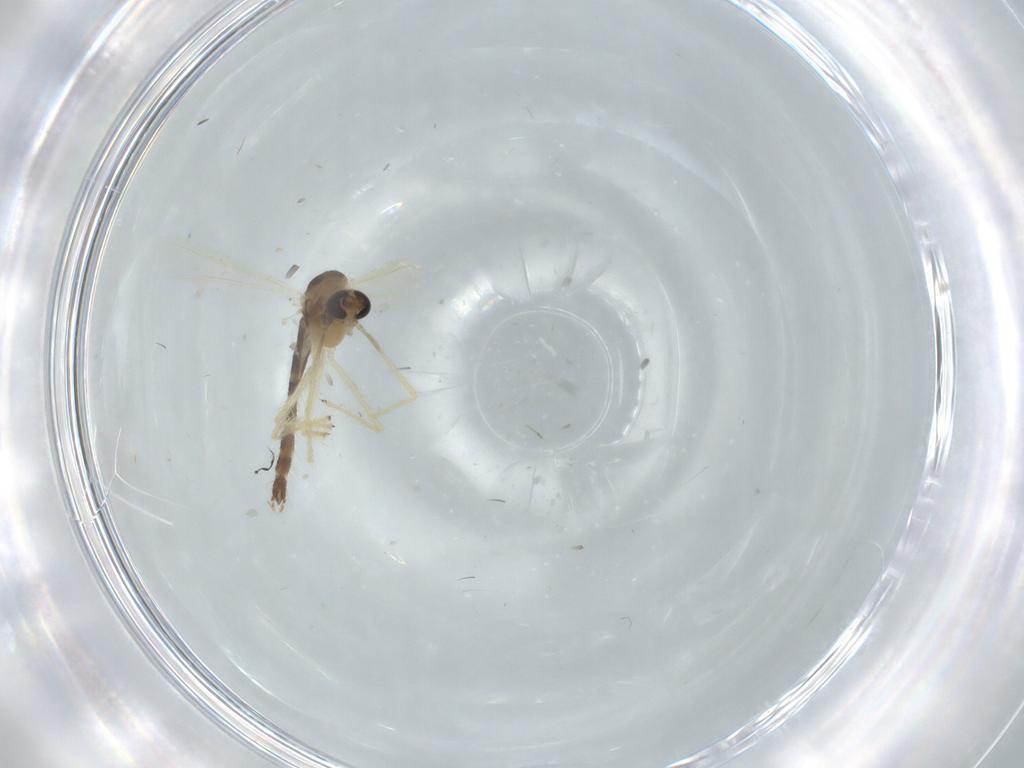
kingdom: Animalia
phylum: Arthropoda
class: Insecta
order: Diptera
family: Chironomidae
